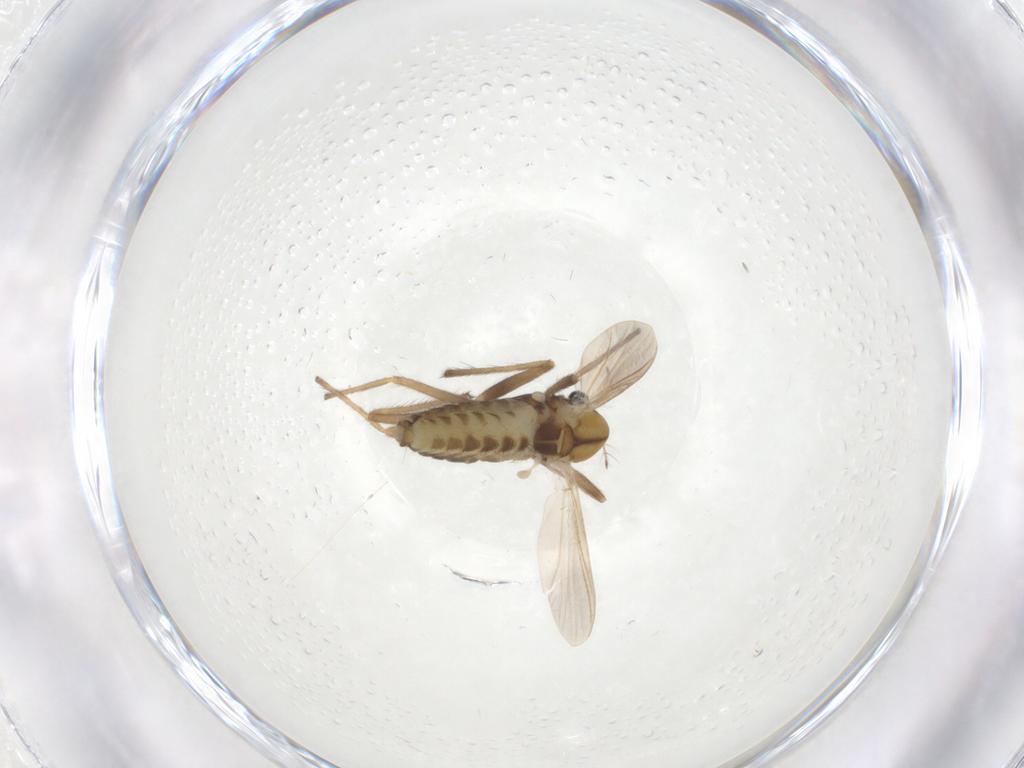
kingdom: Animalia
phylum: Arthropoda
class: Insecta
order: Diptera
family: Chironomidae
